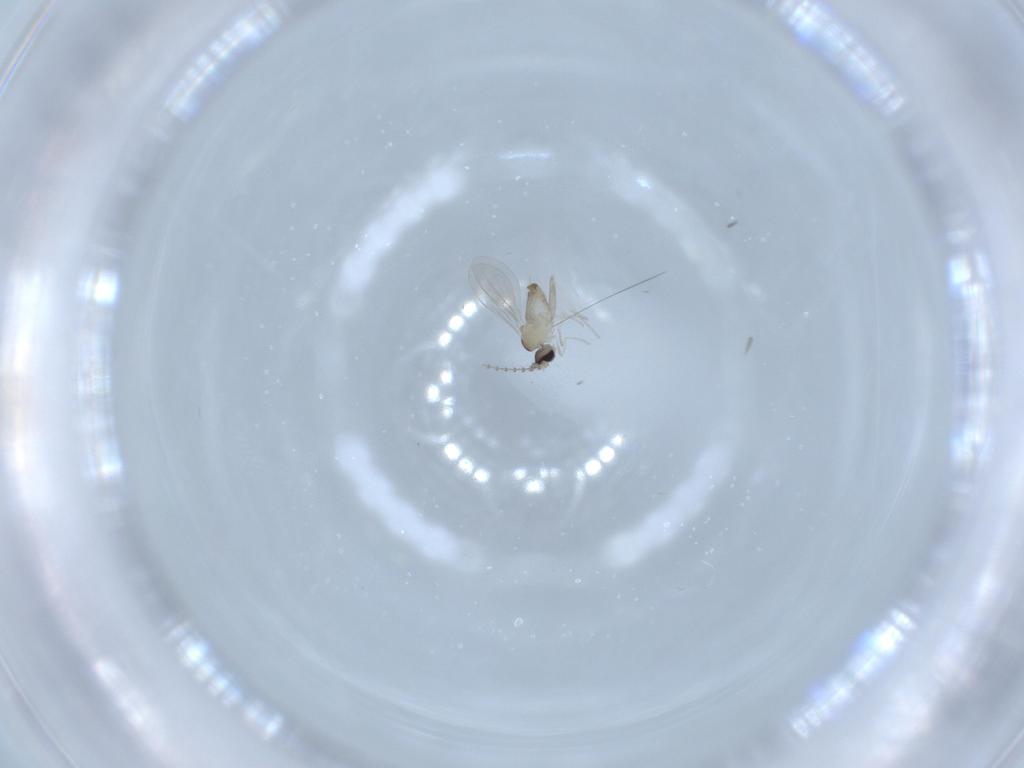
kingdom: Animalia
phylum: Arthropoda
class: Insecta
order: Diptera
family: Cecidomyiidae
